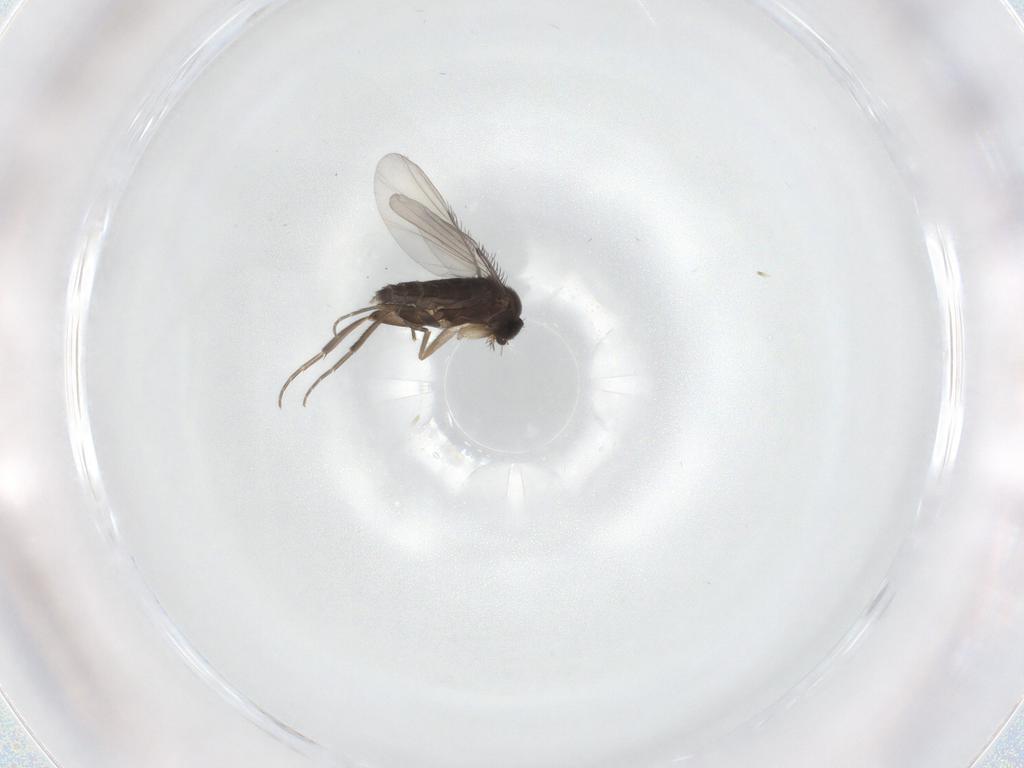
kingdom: Animalia
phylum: Arthropoda
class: Insecta
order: Diptera
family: Phoridae
